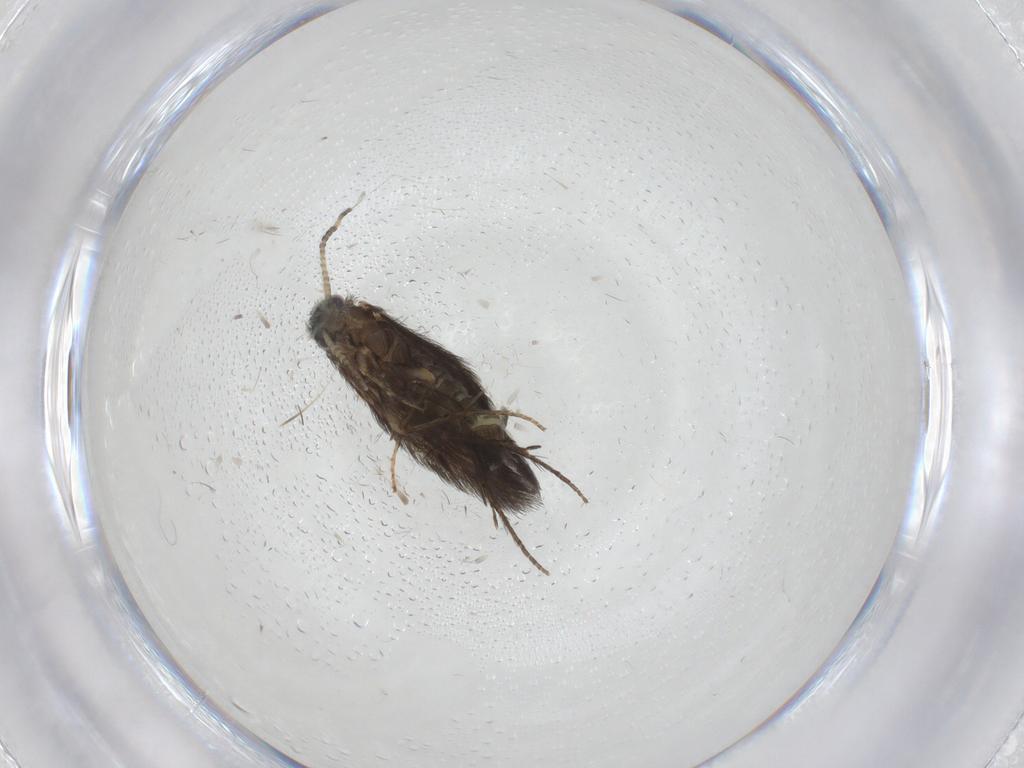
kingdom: Animalia
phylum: Arthropoda
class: Insecta
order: Trichoptera
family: Hydroptilidae
